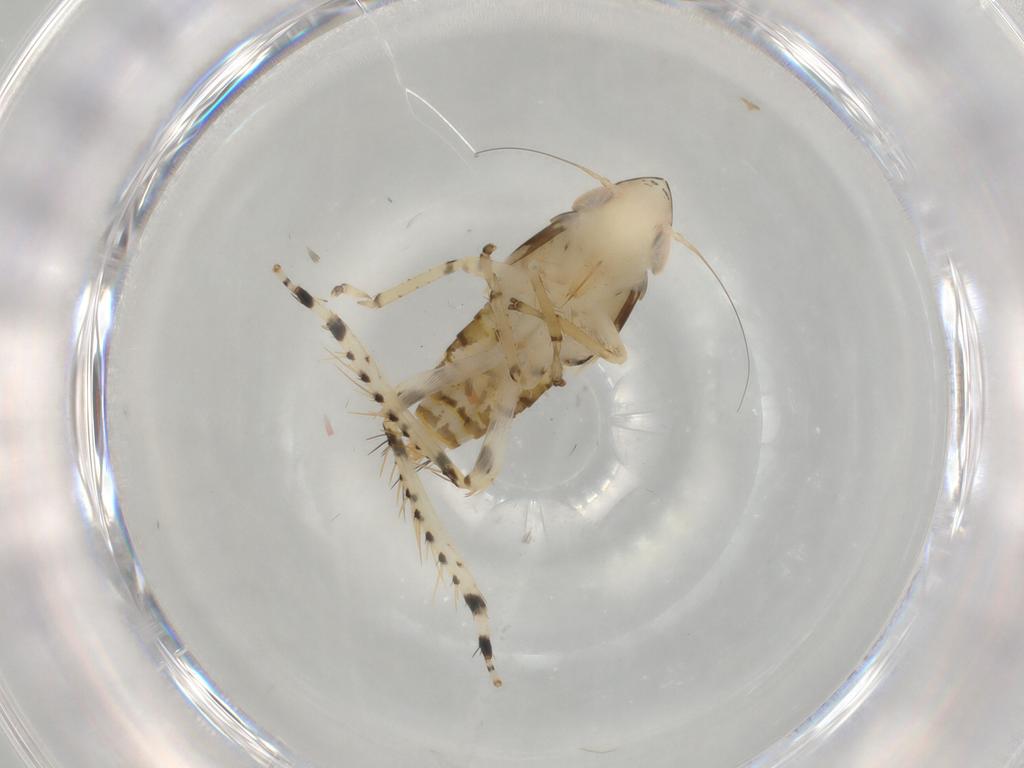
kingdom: Animalia
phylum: Arthropoda
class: Insecta
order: Hemiptera
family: Cicadellidae
